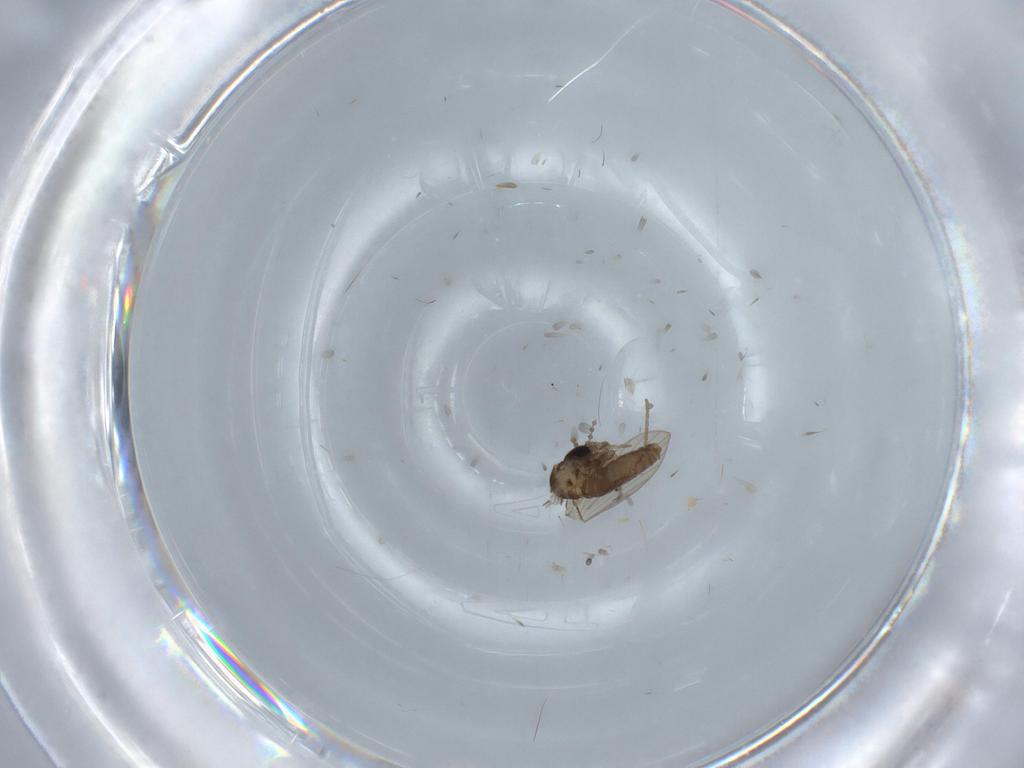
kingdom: Animalia
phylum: Arthropoda
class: Insecta
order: Diptera
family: Psychodidae
